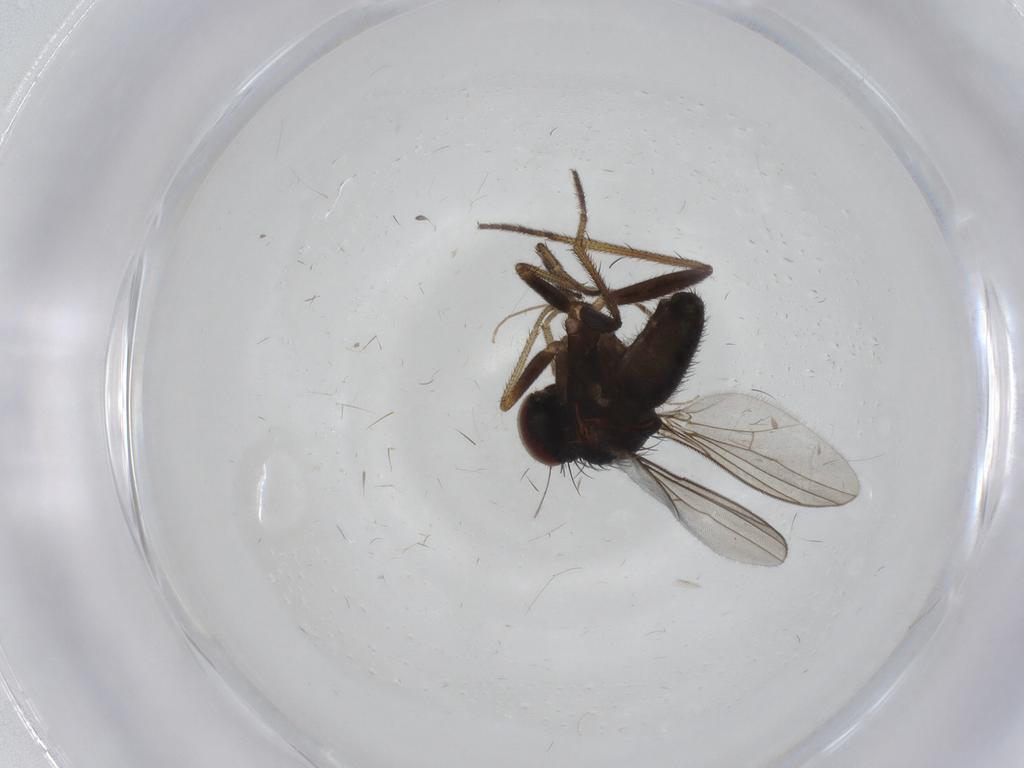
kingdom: Animalia
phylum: Arthropoda
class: Insecta
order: Diptera
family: Chironomidae
